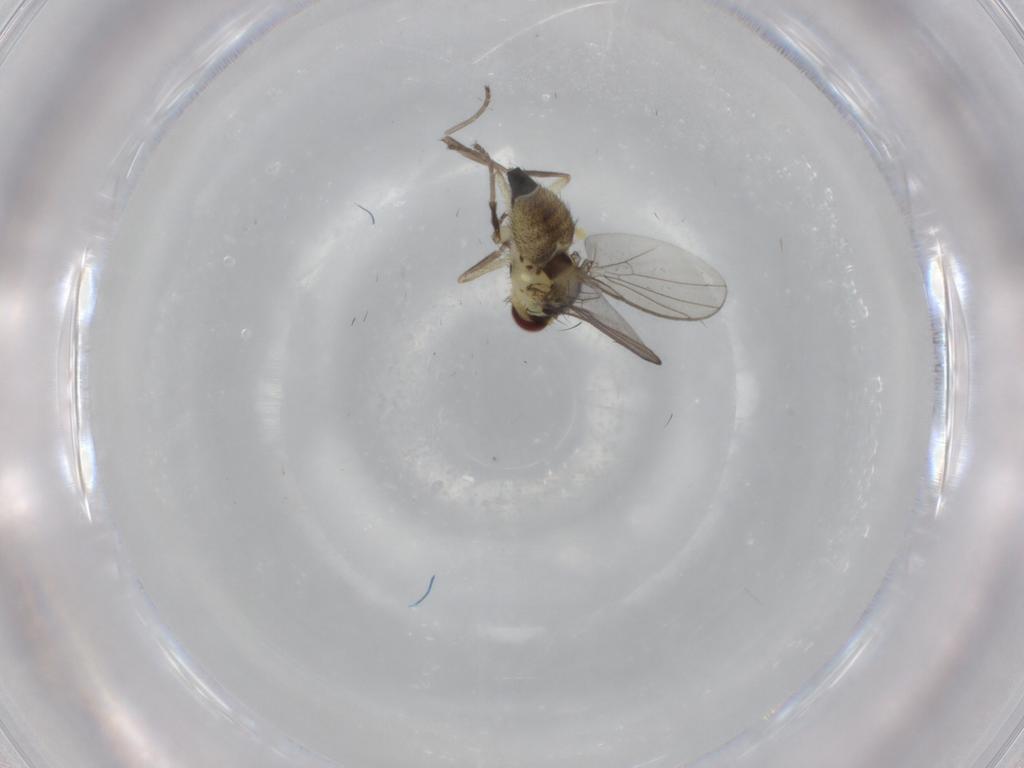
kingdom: Animalia
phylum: Arthropoda
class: Insecta
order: Diptera
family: Agromyzidae
